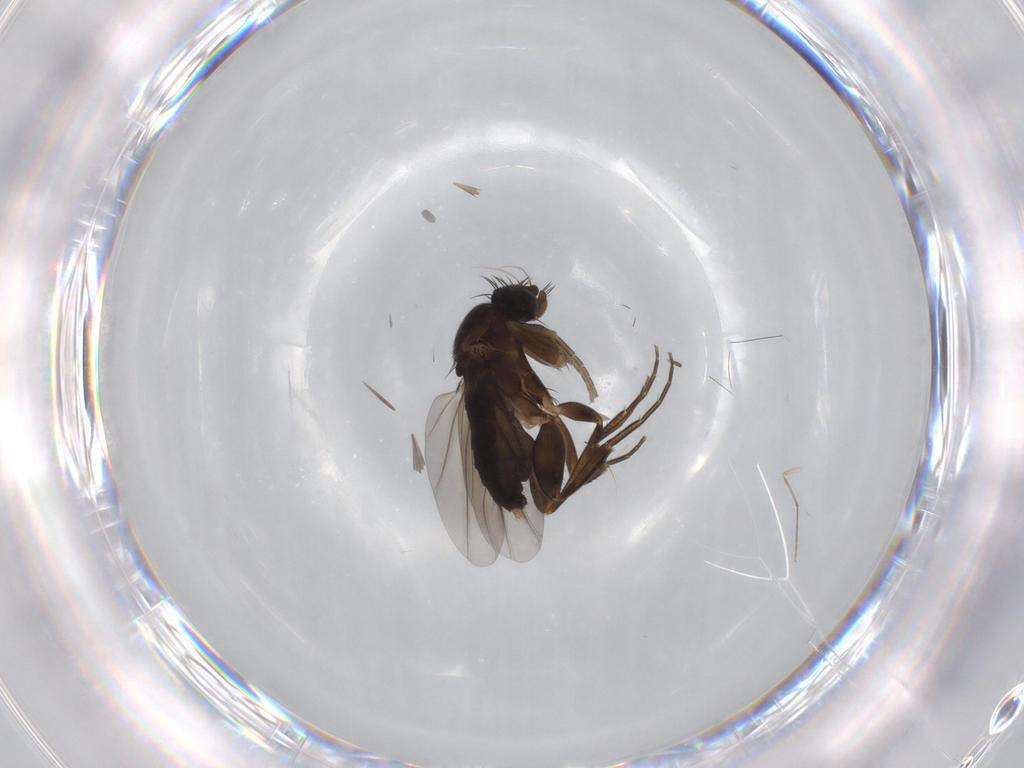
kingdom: Animalia
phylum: Arthropoda
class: Insecta
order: Diptera
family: Phoridae
